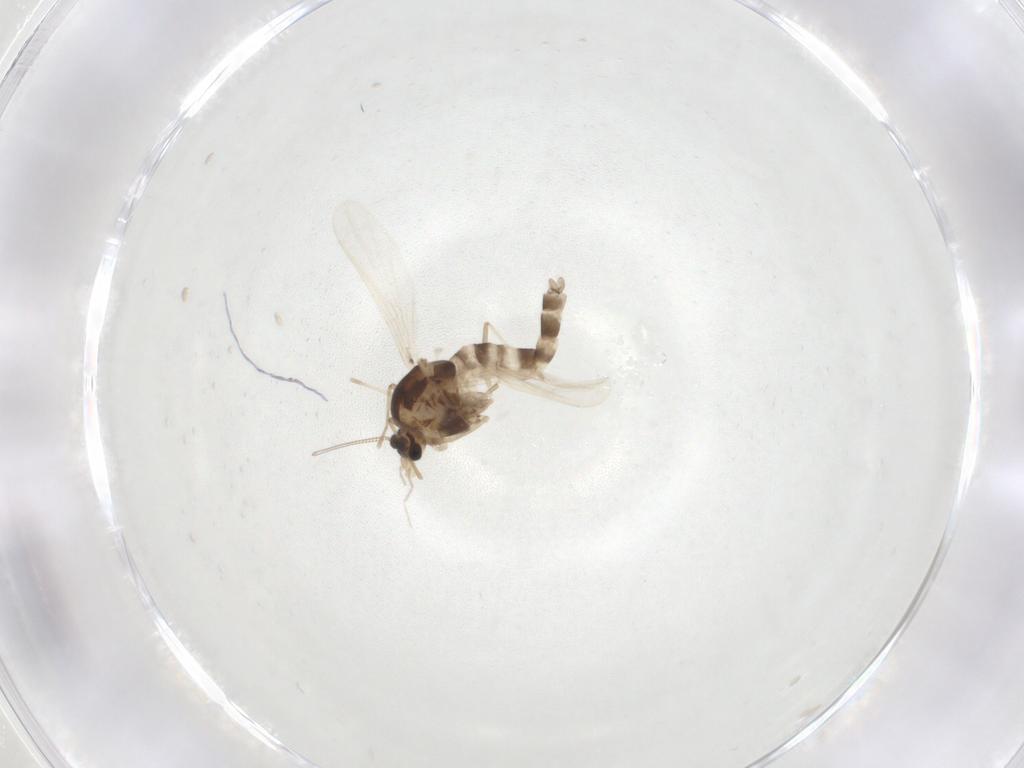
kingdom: Animalia
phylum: Arthropoda
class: Insecta
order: Diptera
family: Chironomidae
